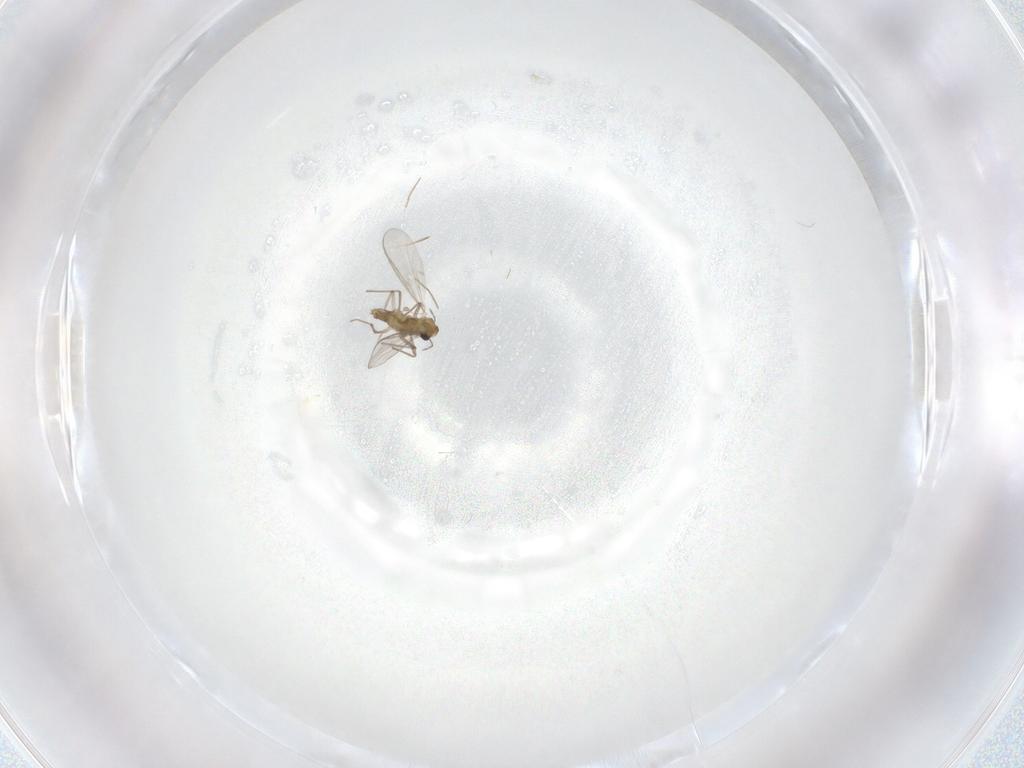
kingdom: Animalia
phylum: Arthropoda
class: Insecta
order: Diptera
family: Chironomidae
